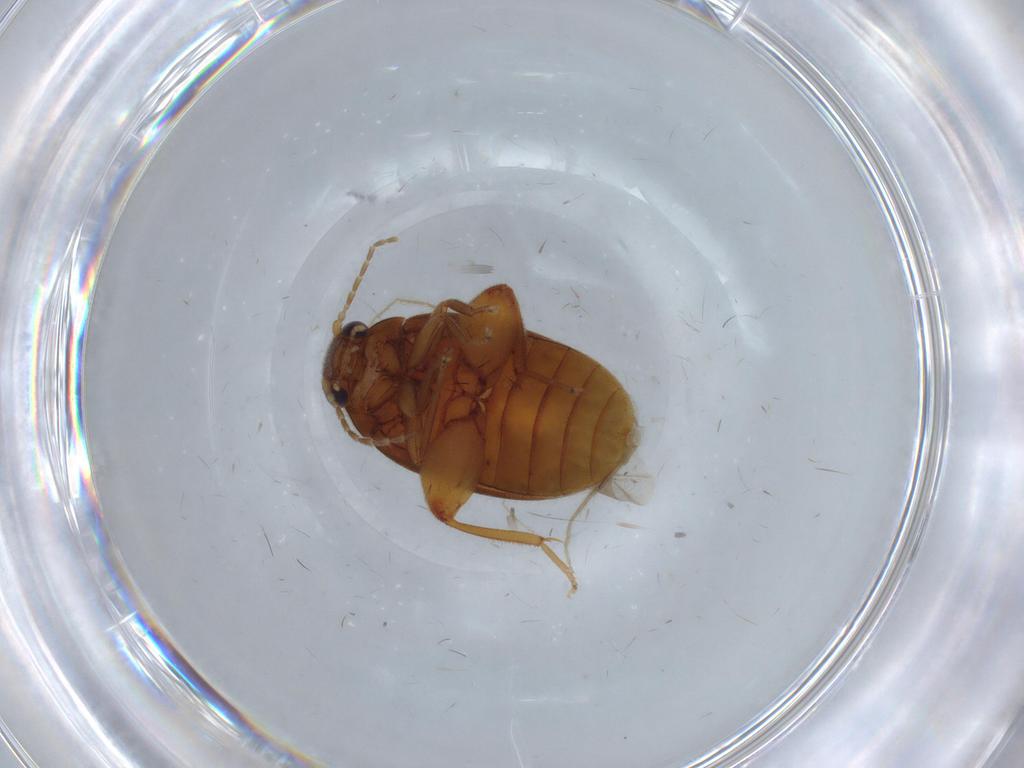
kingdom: Animalia
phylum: Arthropoda
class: Insecta
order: Coleoptera
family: Scirtidae
